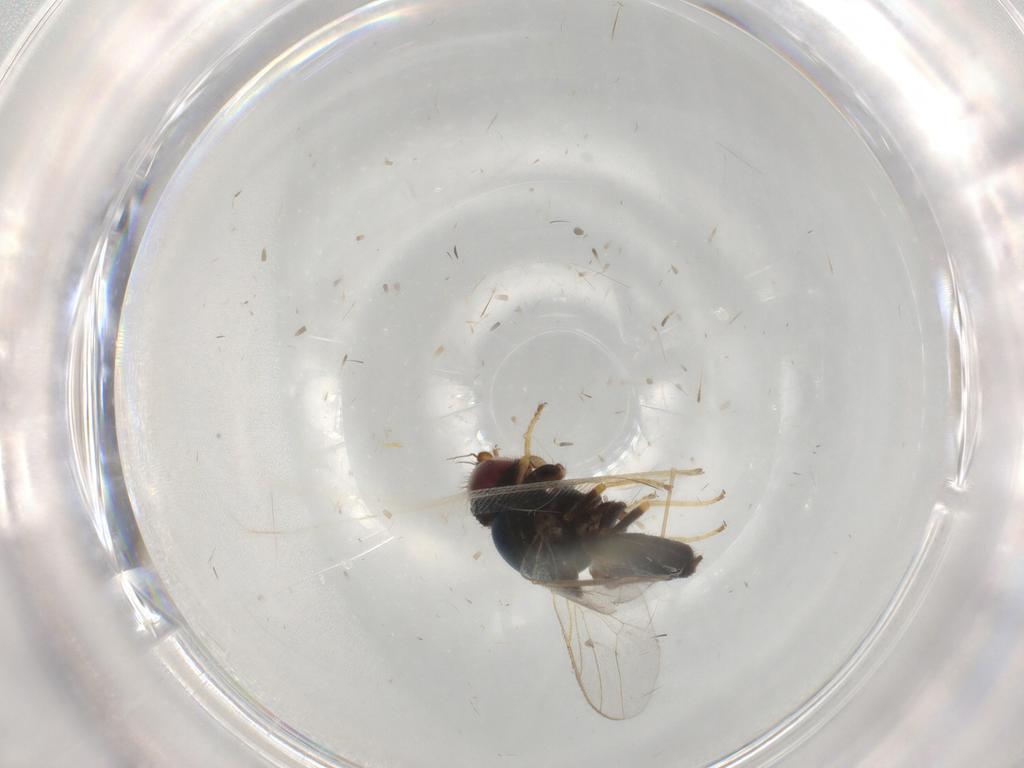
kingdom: Animalia
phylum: Arthropoda
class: Insecta
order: Diptera
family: Chloropidae
